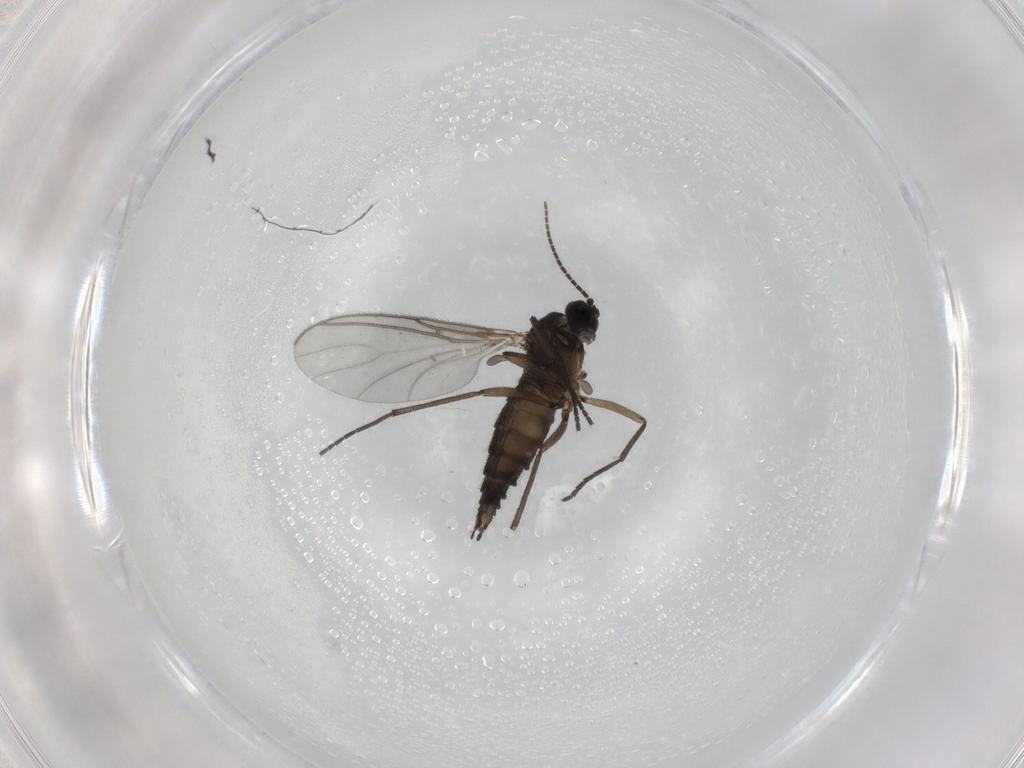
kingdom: Animalia
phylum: Arthropoda
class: Insecta
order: Diptera
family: Sciaridae
